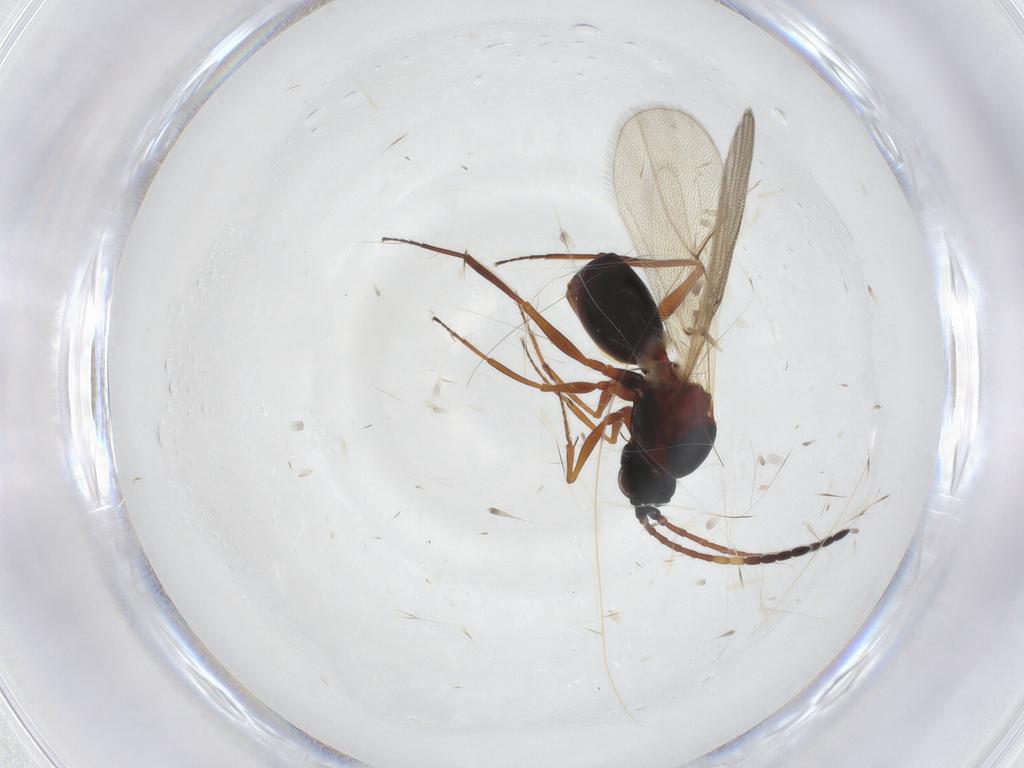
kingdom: Animalia
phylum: Arthropoda
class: Insecta
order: Hymenoptera
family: Figitidae
